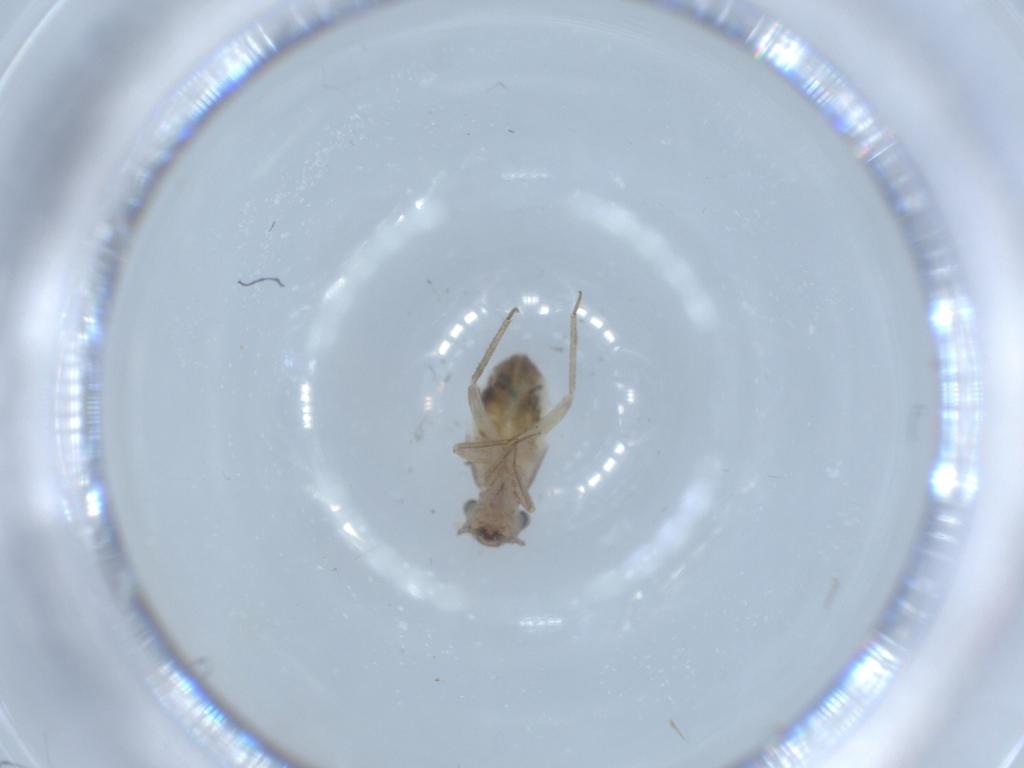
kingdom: Animalia
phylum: Arthropoda
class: Insecta
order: Psocodea
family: Lepidopsocidae
